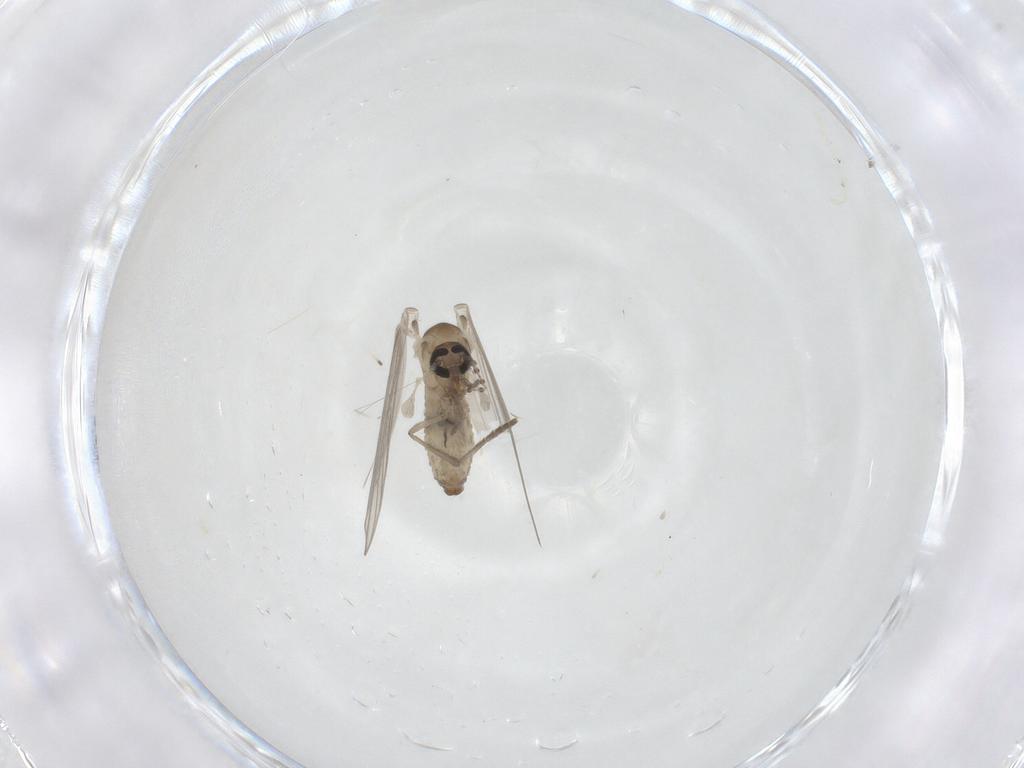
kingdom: Animalia
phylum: Arthropoda
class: Insecta
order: Diptera
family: Psychodidae
